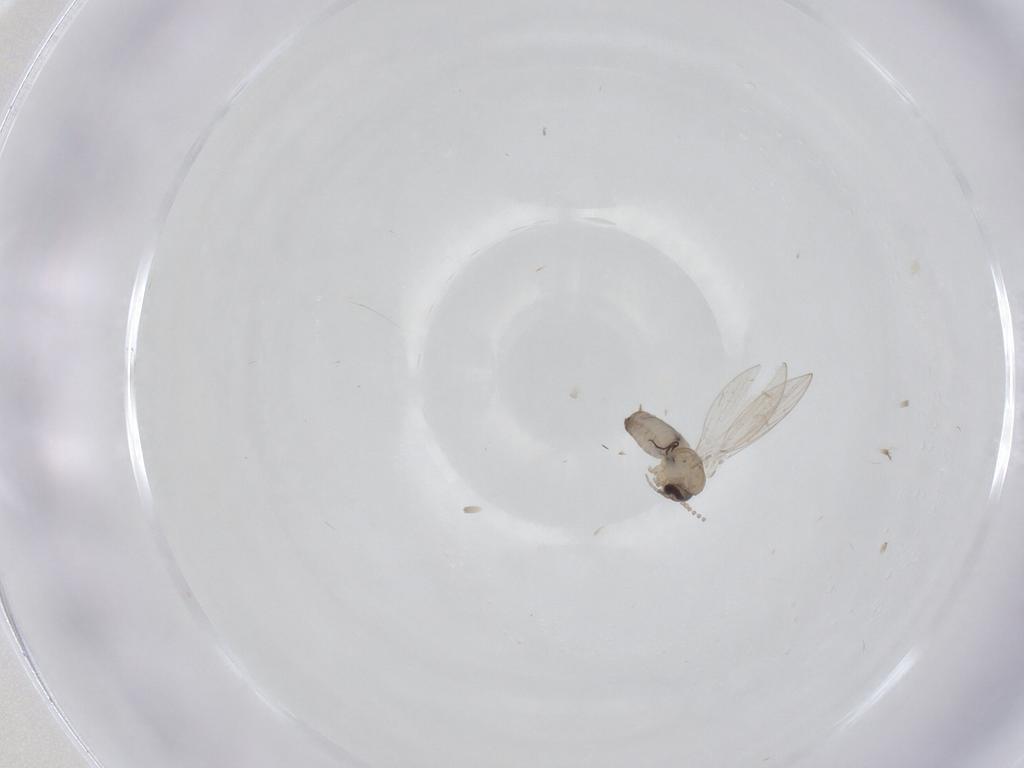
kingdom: Animalia
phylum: Arthropoda
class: Insecta
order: Diptera
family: Psychodidae
